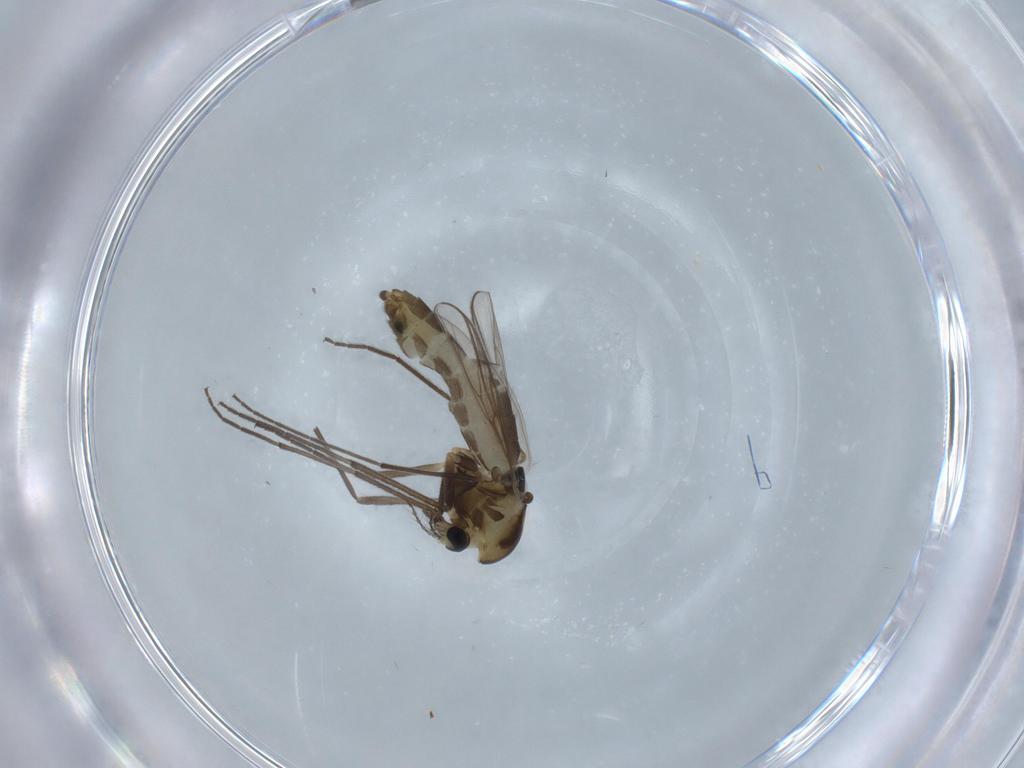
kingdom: Animalia
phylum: Arthropoda
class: Insecta
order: Diptera
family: Chironomidae
